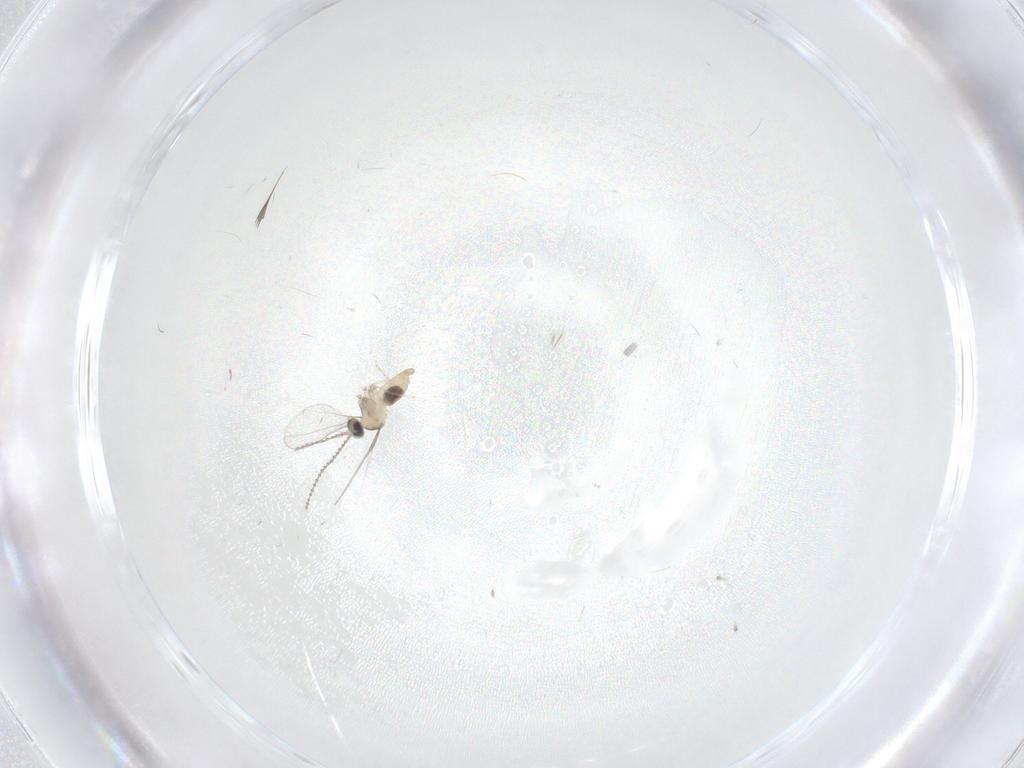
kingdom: Animalia
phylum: Arthropoda
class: Insecta
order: Diptera
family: Cecidomyiidae
